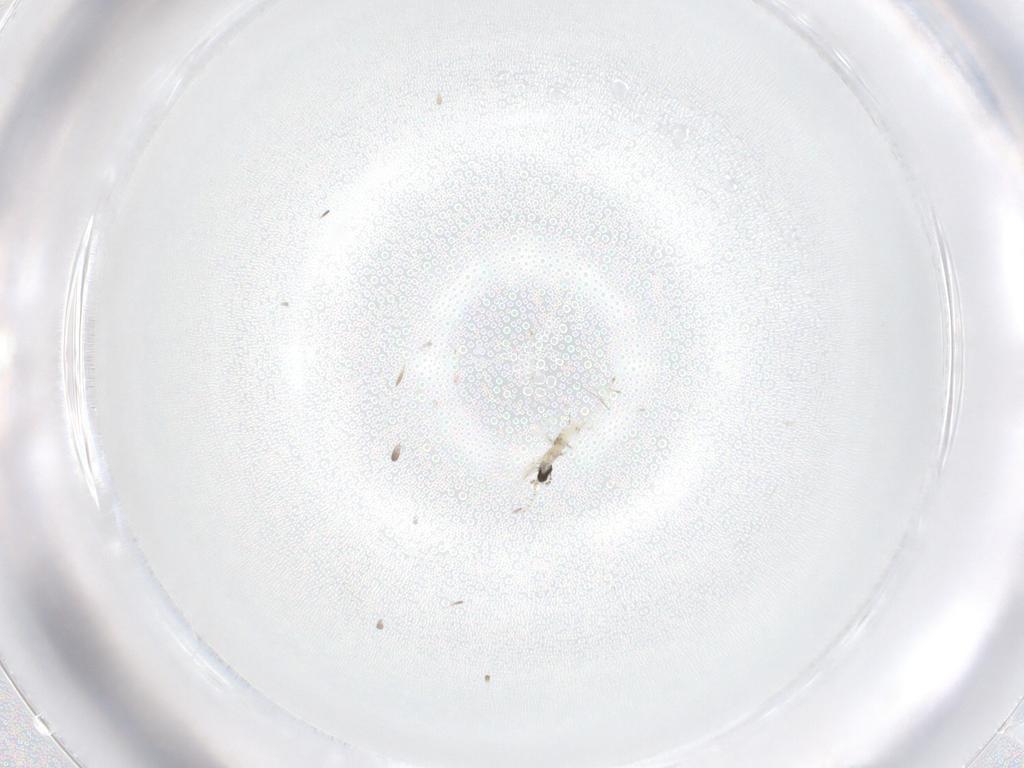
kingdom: Animalia
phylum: Arthropoda
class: Insecta
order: Diptera
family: Cecidomyiidae
